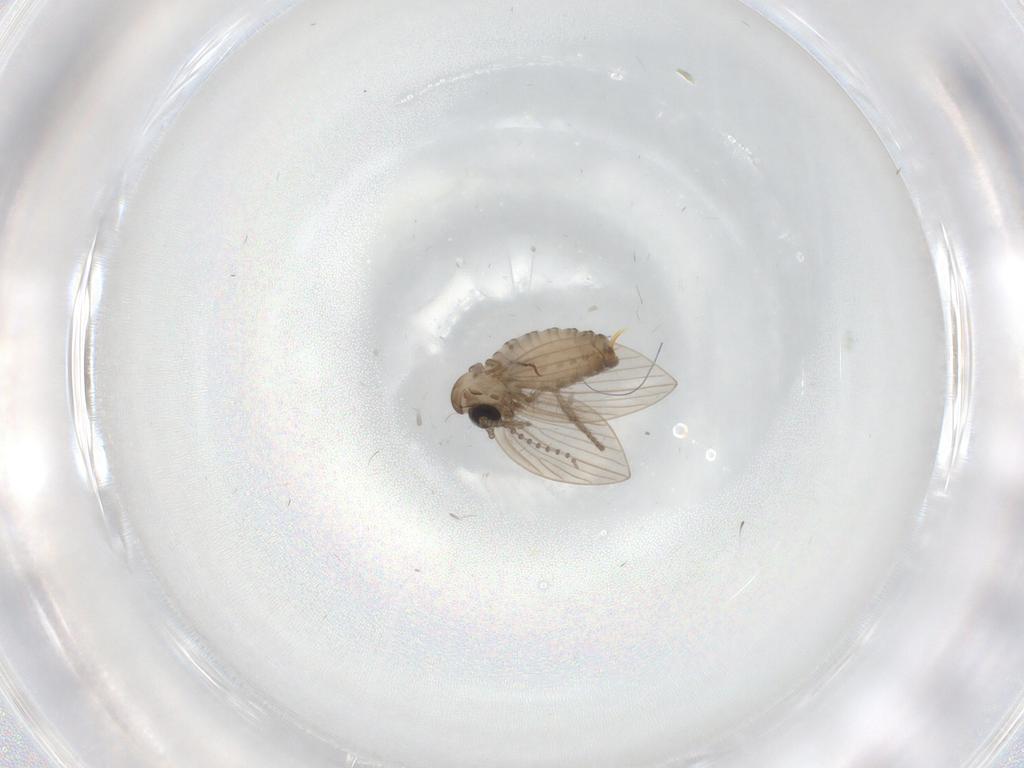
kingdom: Animalia
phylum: Arthropoda
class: Insecta
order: Diptera
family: Psychodidae
